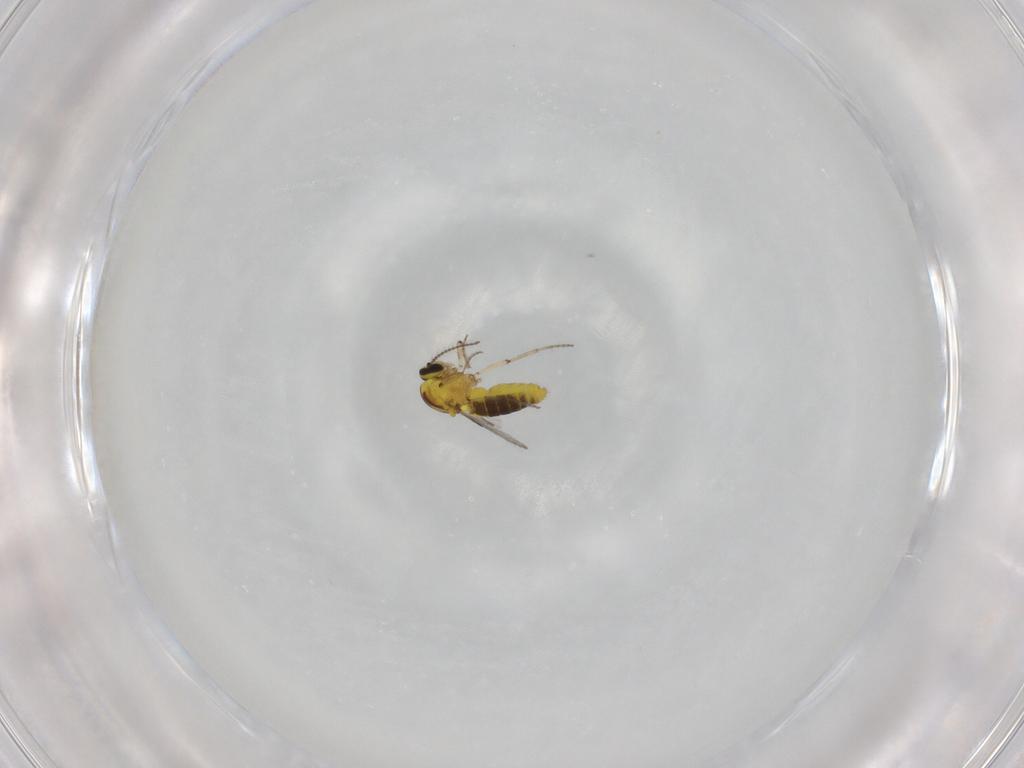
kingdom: Animalia
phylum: Arthropoda
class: Insecta
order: Diptera
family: Ceratopogonidae
